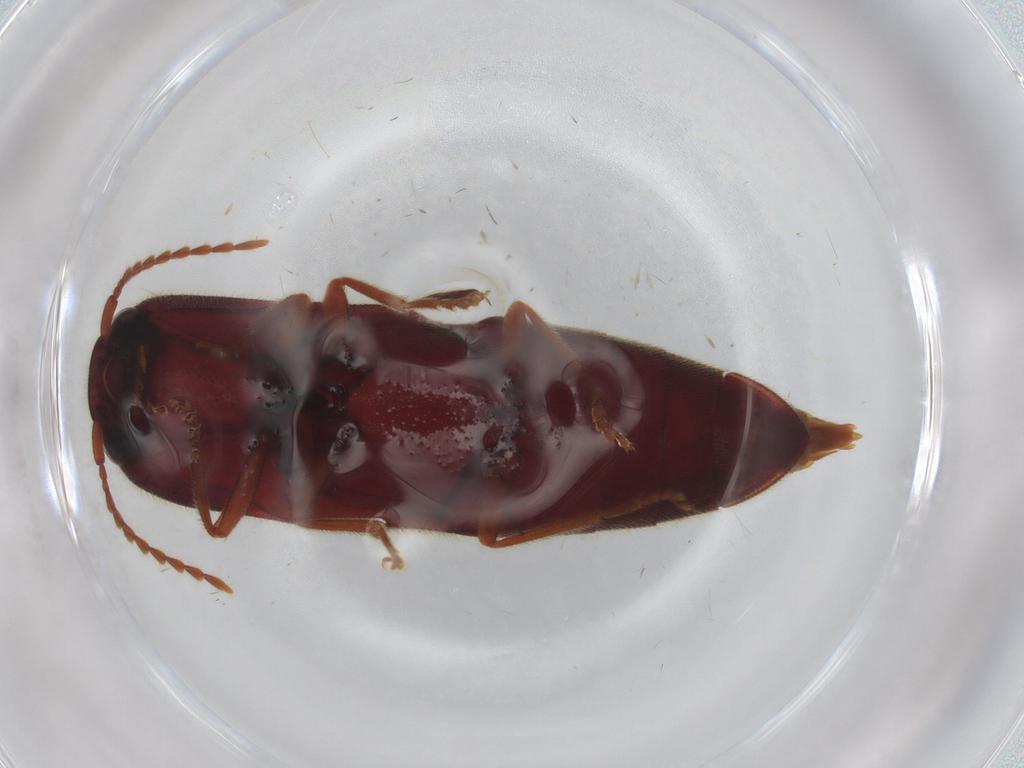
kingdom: Animalia
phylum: Arthropoda
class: Insecta
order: Coleoptera
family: Elateridae
